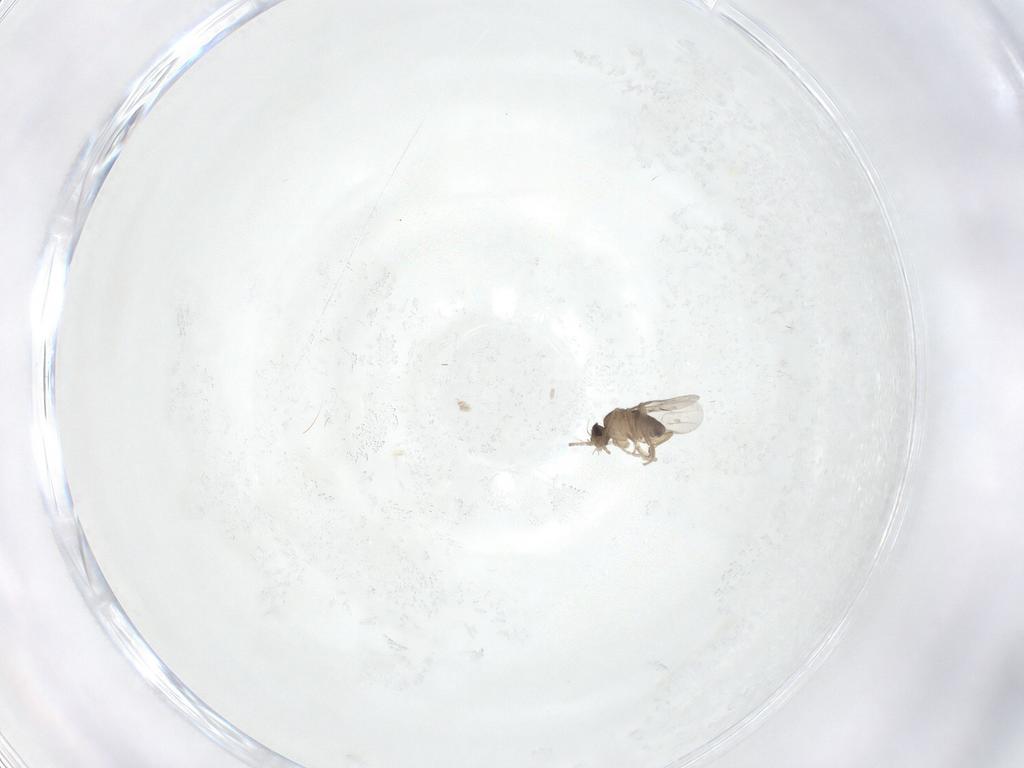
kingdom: Animalia
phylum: Arthropoda
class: Insecta
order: Diptera
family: Phoridae
